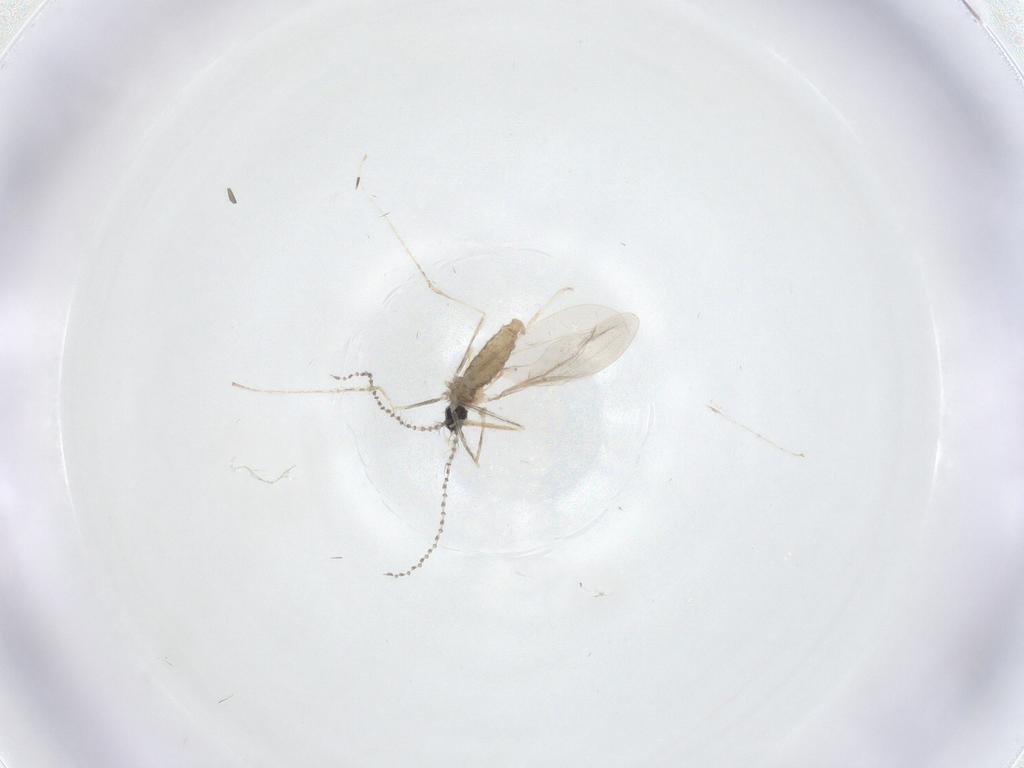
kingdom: Animalia
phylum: Arthropoda
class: Insecta
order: Diptera
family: Cecidomyiidae
